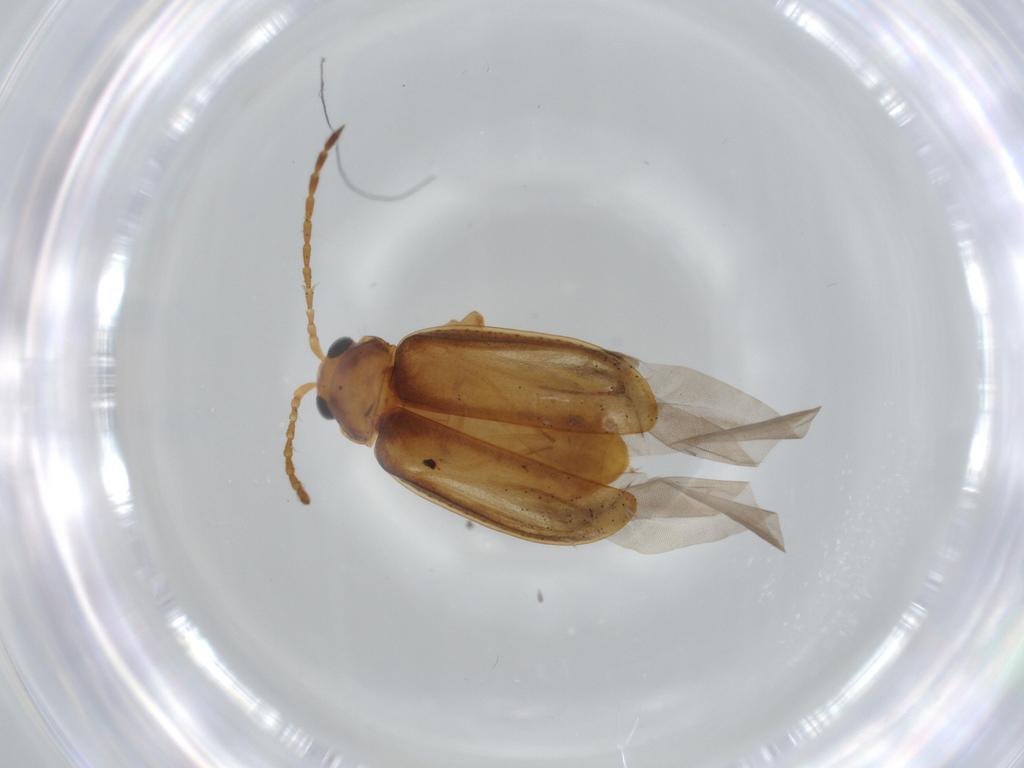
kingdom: Animalia
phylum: Arthropoda
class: Insecta
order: Coleoptera
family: Chrysomelidae
